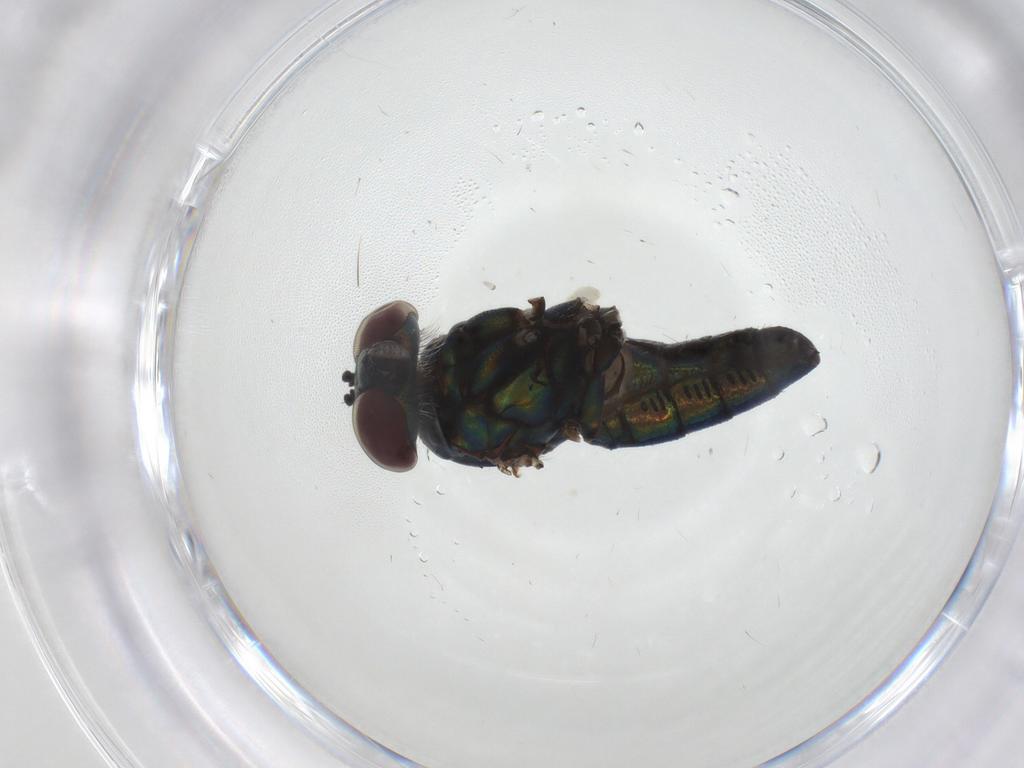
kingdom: Animalia
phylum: Arthropoda
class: Insecta
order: Diptera
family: Dolichopodidae
